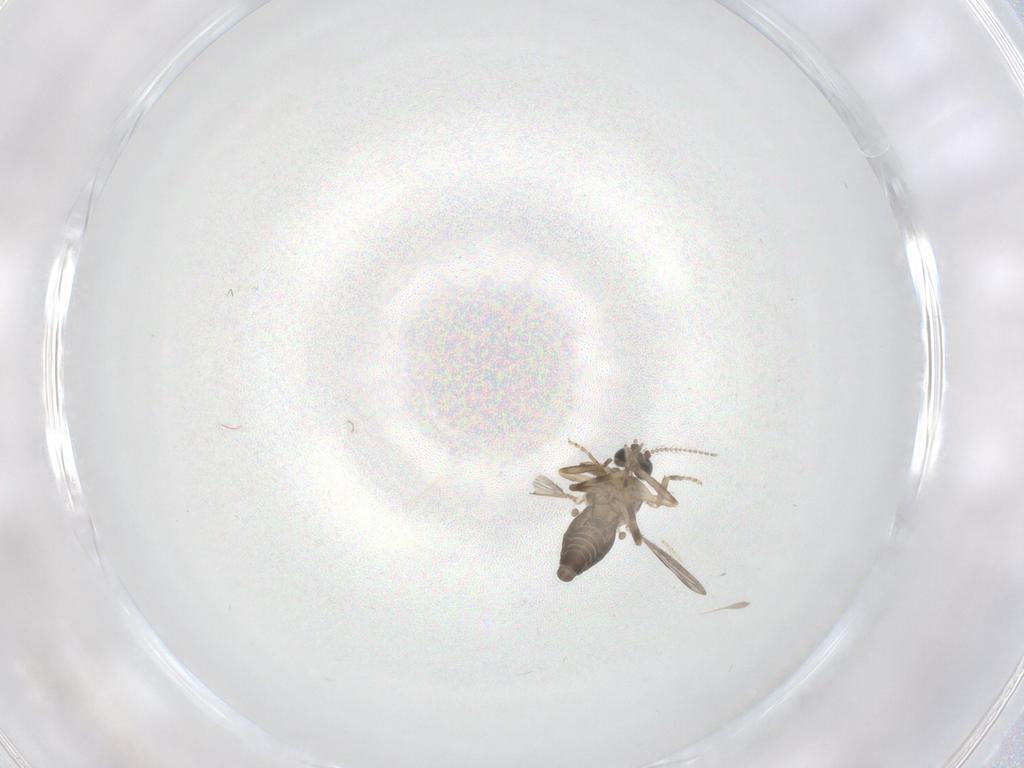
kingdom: Animalia
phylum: Arthropoda
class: Insecta
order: Diptera
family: Ceratopogonidae
